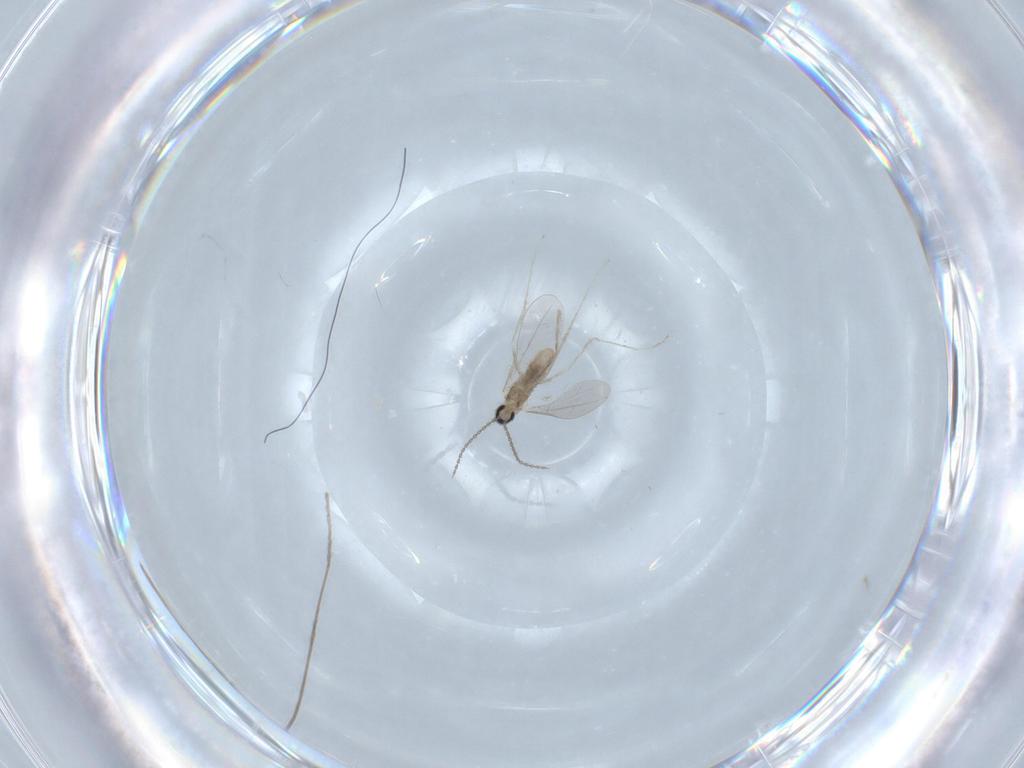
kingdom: Animalia
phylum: Arthropoda
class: Insecta
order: Diptera
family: Cecidomyiidae
